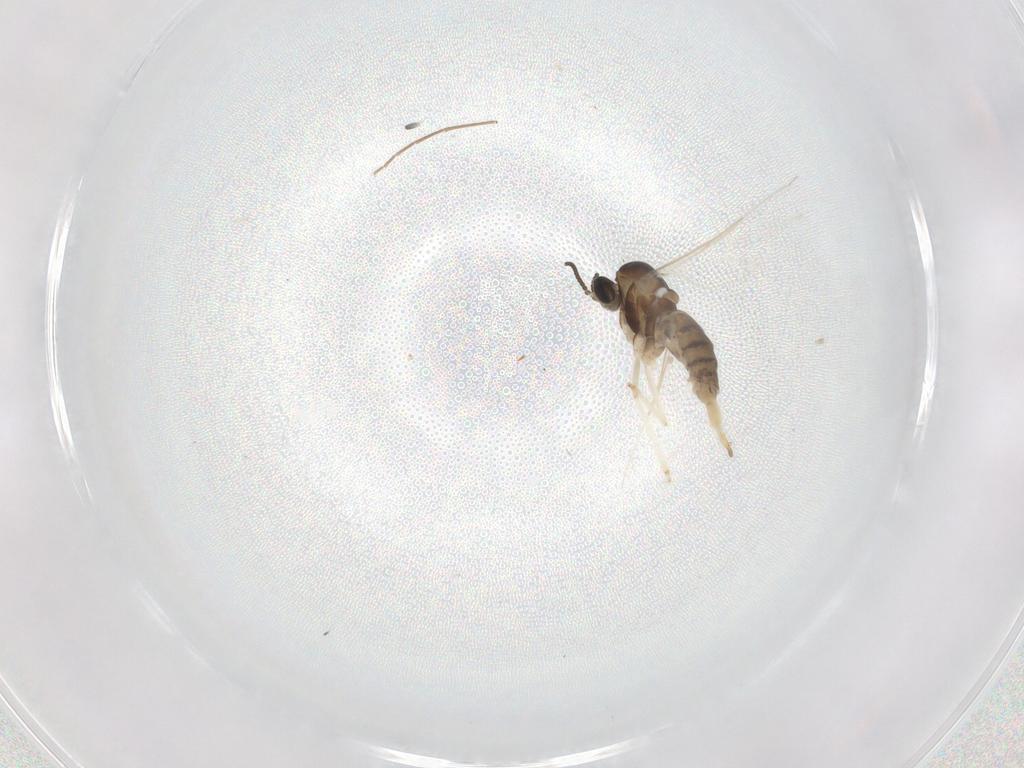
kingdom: Animalia
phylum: Arthropoda
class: Insecta
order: Diptera
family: Cecidomyiidae
